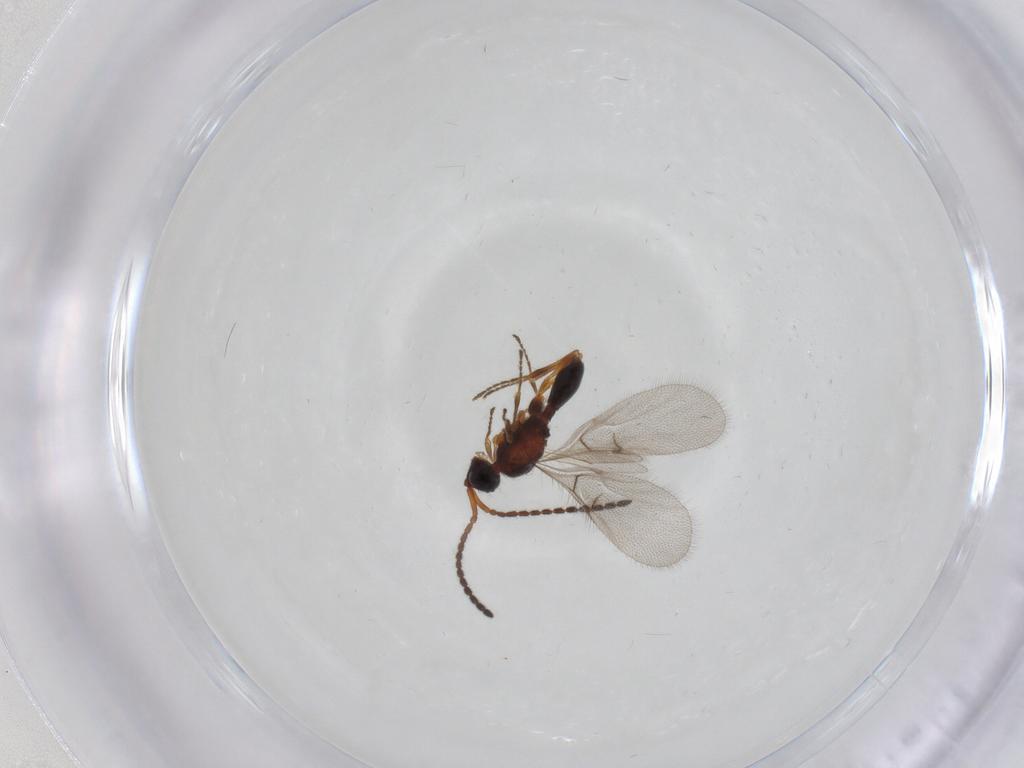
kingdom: Animalia
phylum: Arthropoda
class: Insecta
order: Hymenoptera
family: Diapriidae
